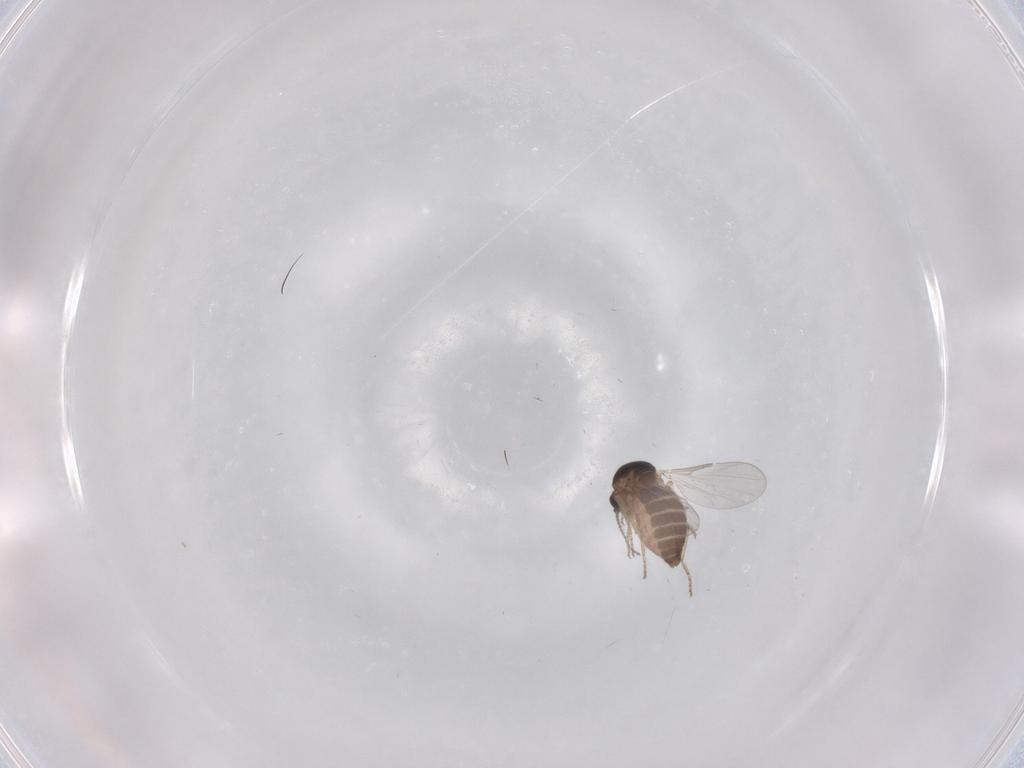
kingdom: Animalia
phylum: Arthropoda
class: Insecta
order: Diptera
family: Ceratopogonidae
